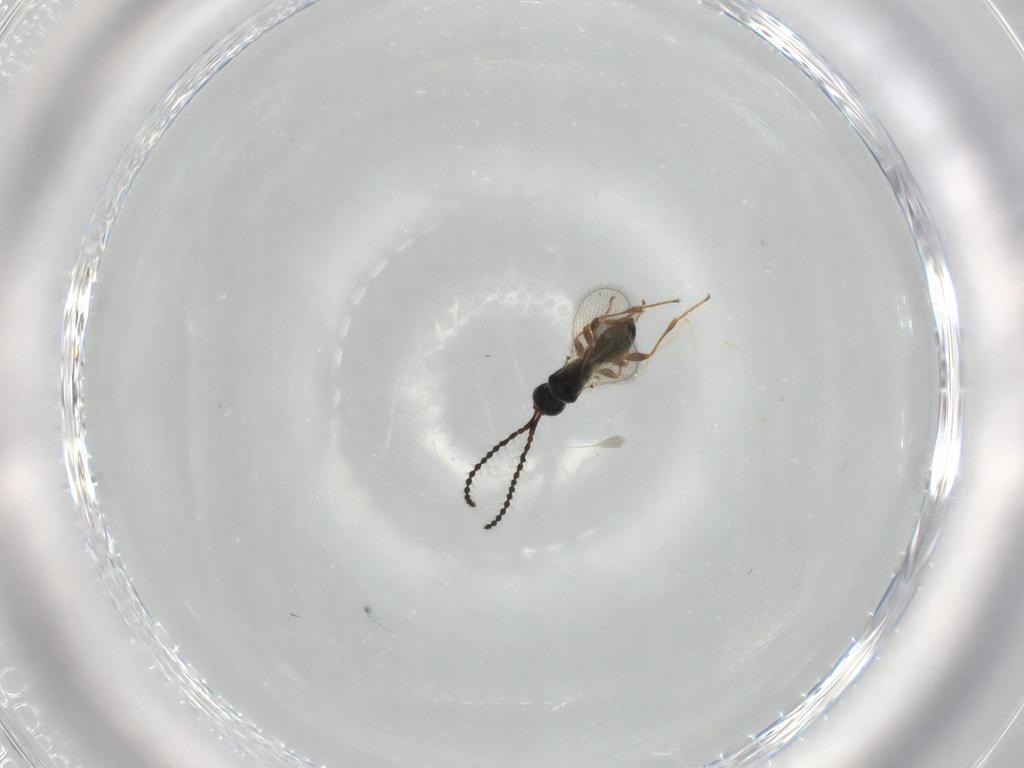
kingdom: Animalia
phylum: Arthropoda
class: Insecta
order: Hymenoptera
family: Diapriidae
